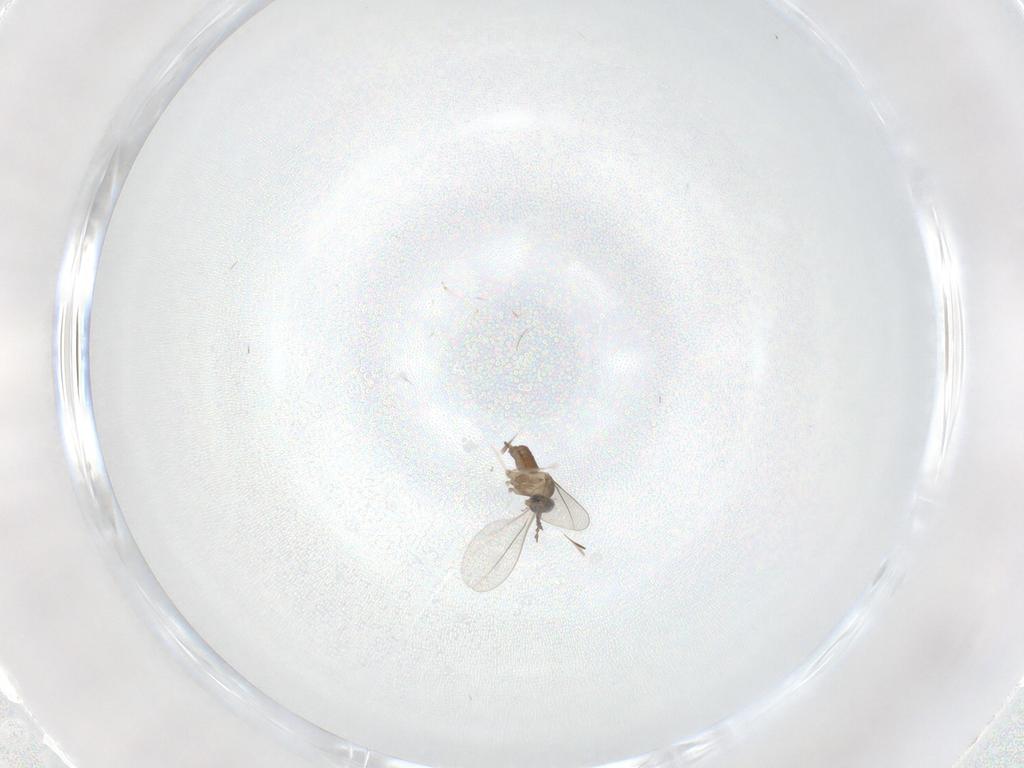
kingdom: Animalia
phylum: Arthropoda
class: Insecta
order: Diptera
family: Cecidomyiidae
